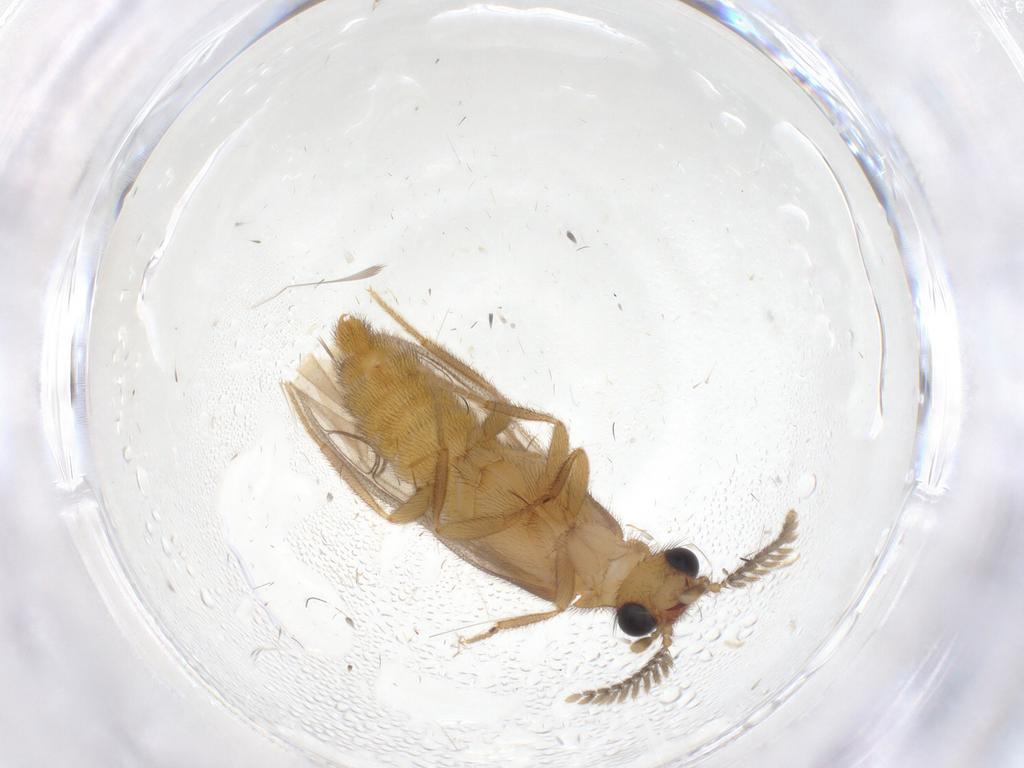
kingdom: Animalia
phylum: Arthropoda
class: Insecta
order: Coleoptera
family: Phengodidae
